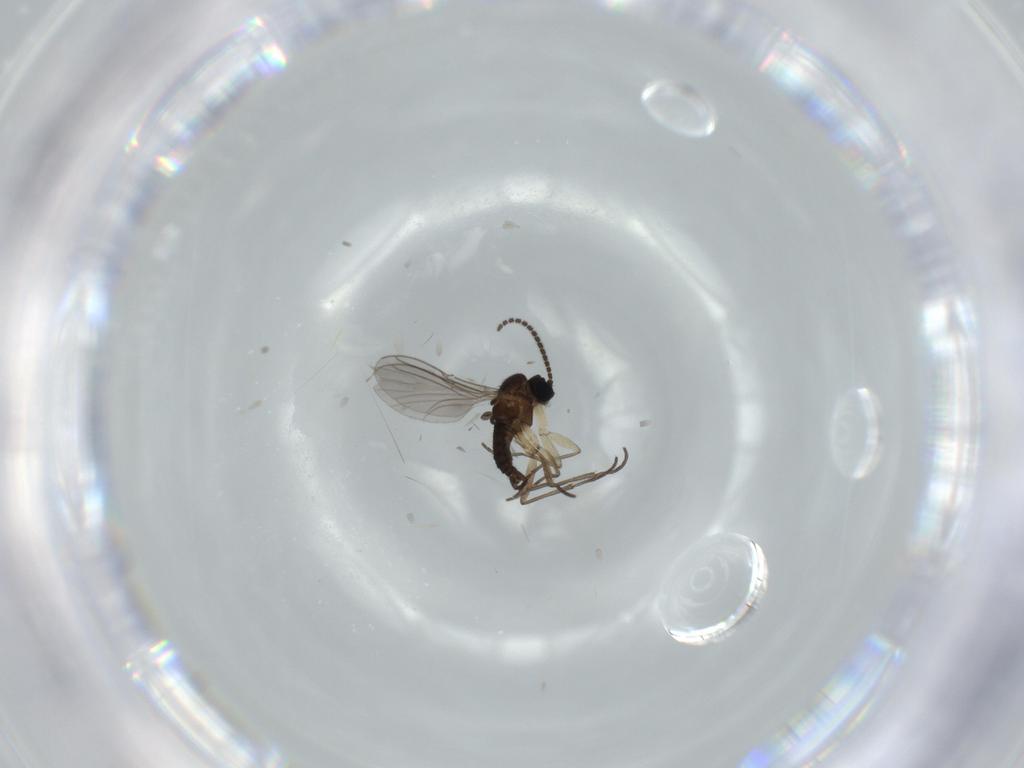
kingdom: Animalia
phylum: Arthropoda
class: Insecta
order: Diptera
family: Sciaridae
